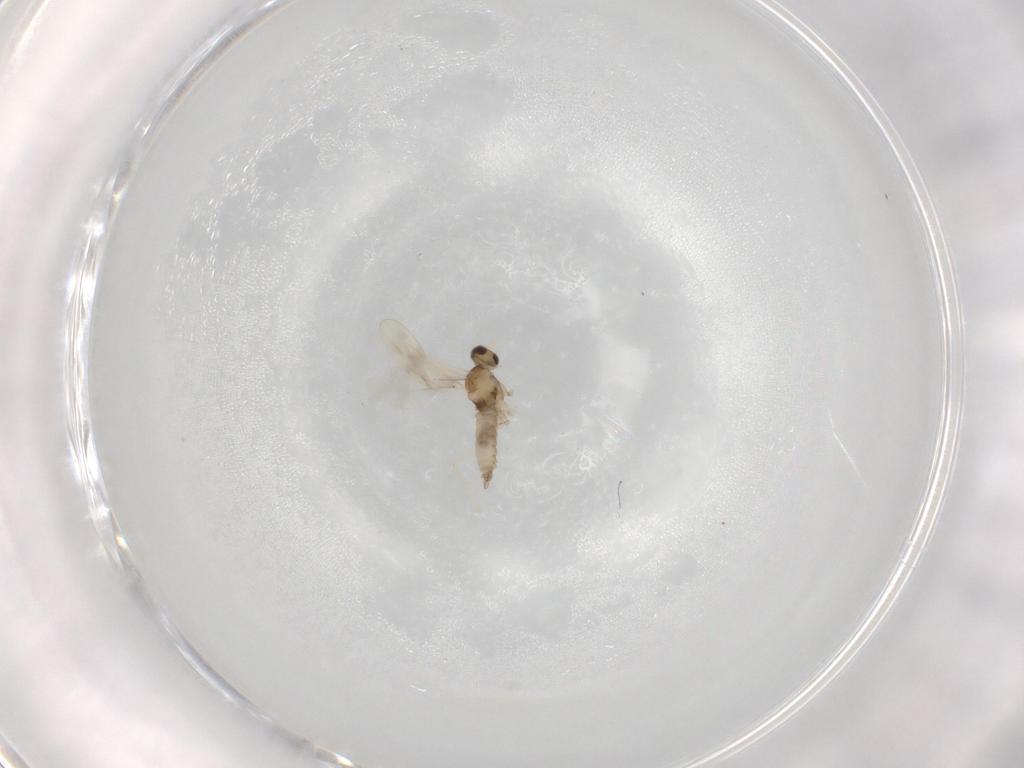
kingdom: Animalia
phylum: Arthropoda
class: Insecta
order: Diptera
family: Cecidomyiidae
